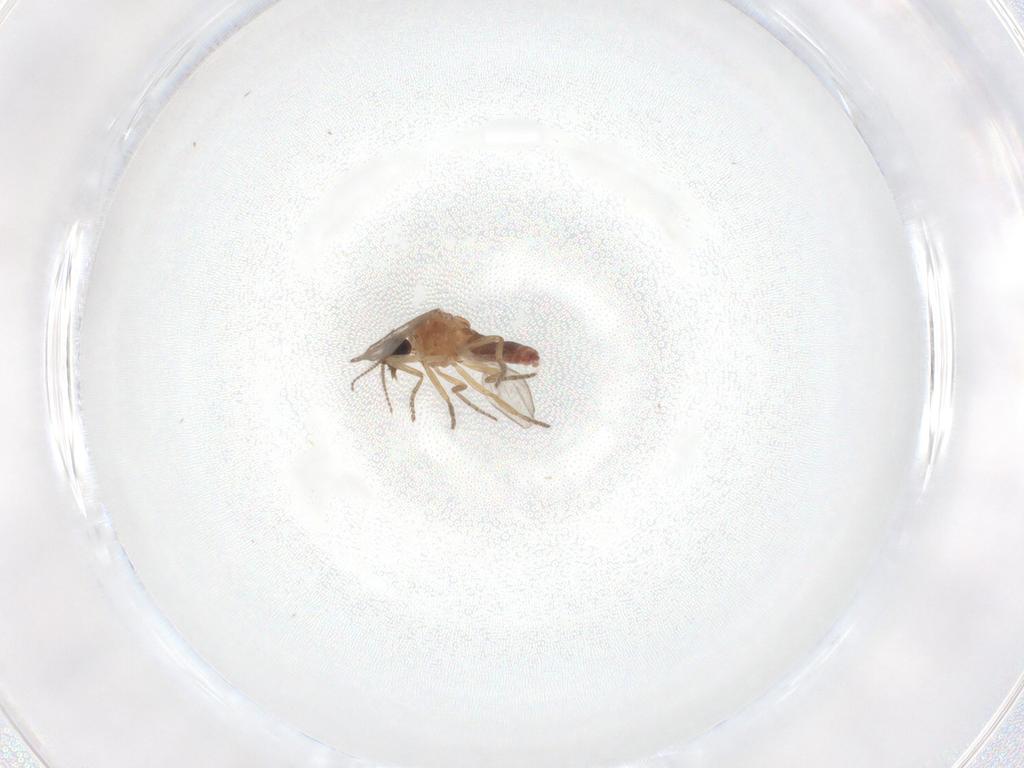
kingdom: Animalia
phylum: Arthropoda
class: Insecta
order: Diptera
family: Ceratopogonidae
